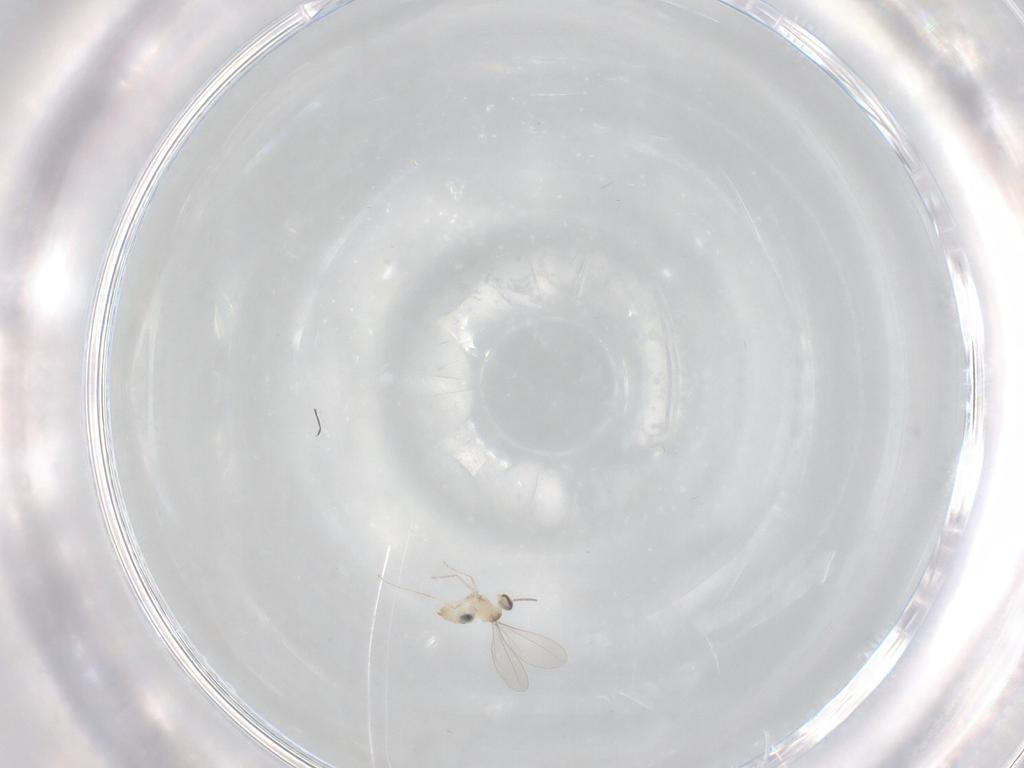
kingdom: Animalia
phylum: Arthropoda
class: Insecta
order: Diptera
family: Cecidomyiidae
